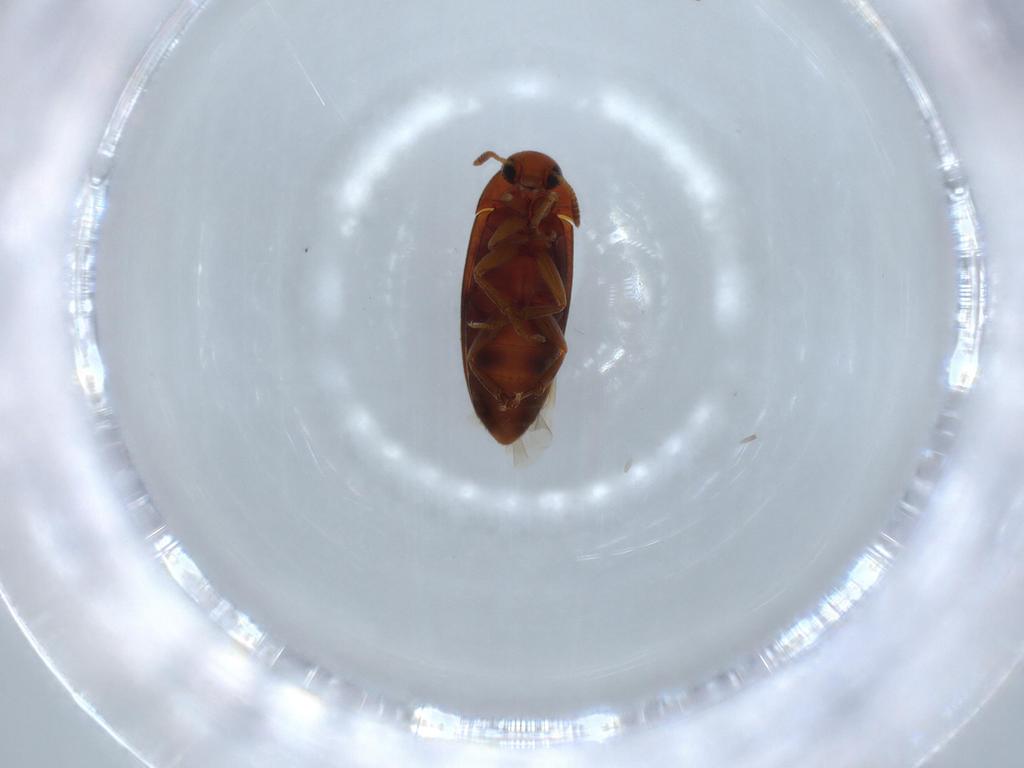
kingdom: Animalia
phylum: Arthropoda
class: Insecta
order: Coleoptera
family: Scraptiidae
